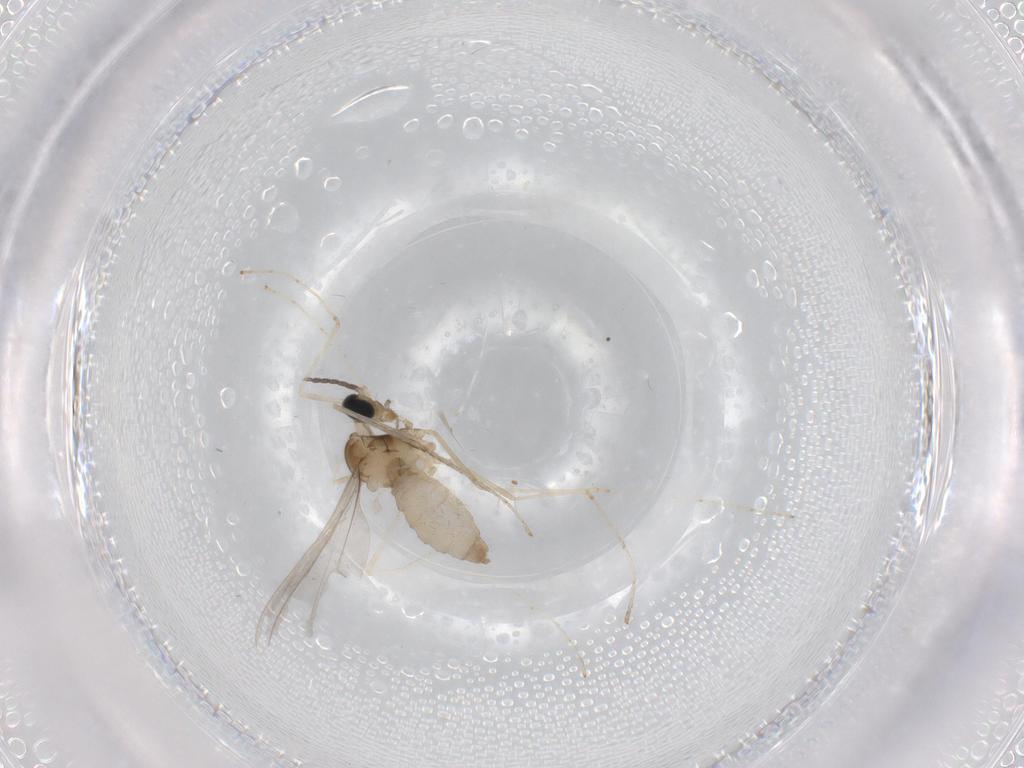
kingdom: Animalia
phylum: Arthropoda
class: Insecta
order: Diptera
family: Cecidomyiidae
